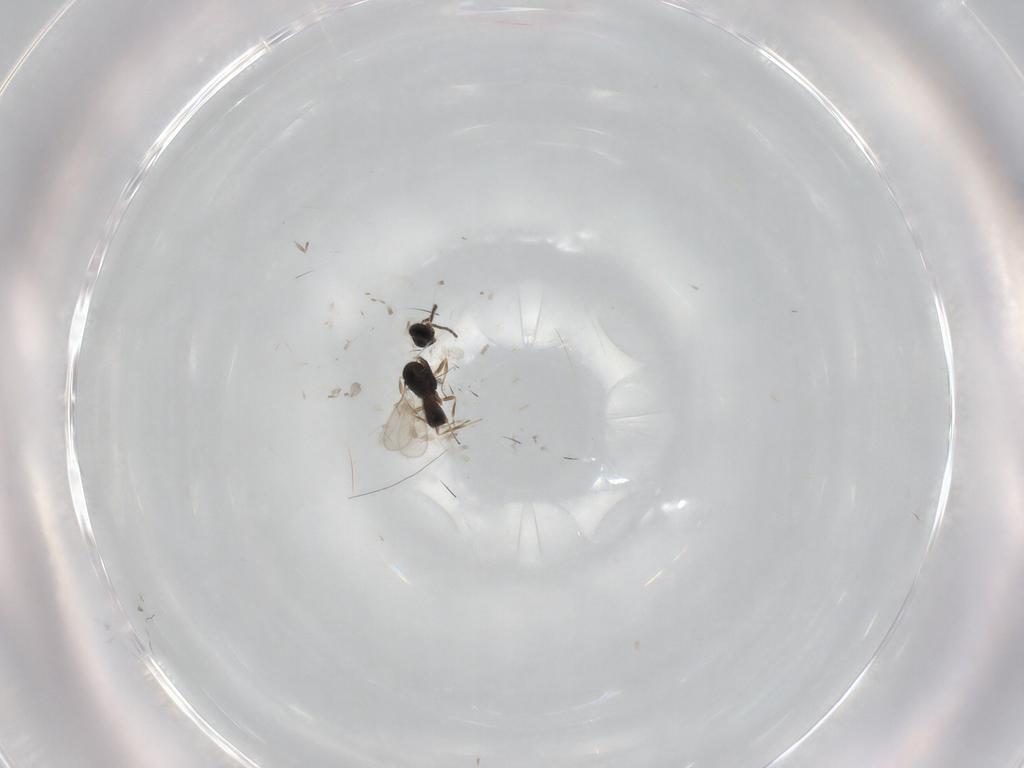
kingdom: Animalia
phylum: Arthropoda
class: Insecta
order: Hymenoptera
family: Scelionidae
